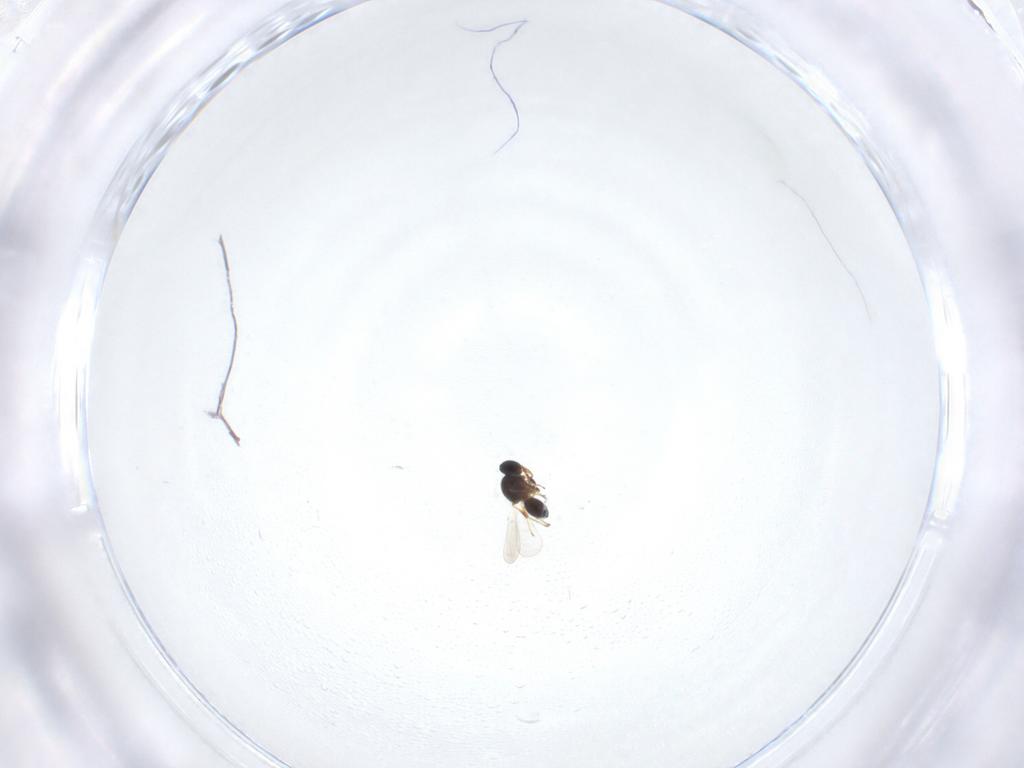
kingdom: Animalia
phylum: Arthropoda
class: Insecta
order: Hymenoptera
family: Platygastridae
